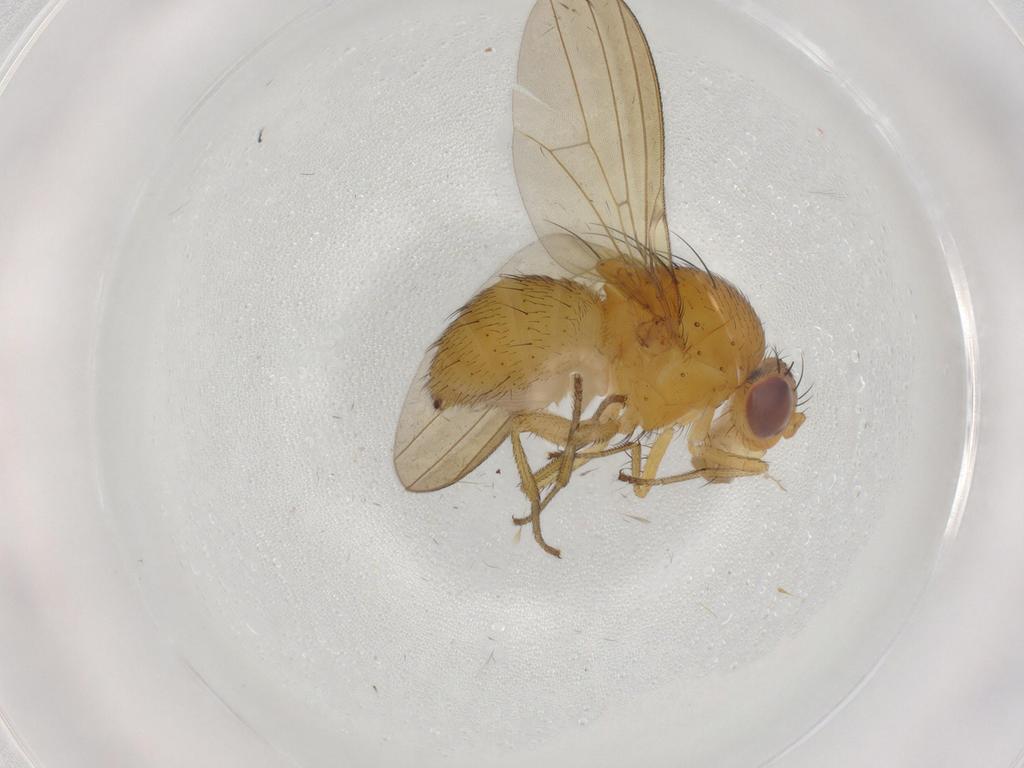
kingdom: Animalia
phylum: Arthropoda
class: Insecta
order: Diptera
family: Lauxaniidae
